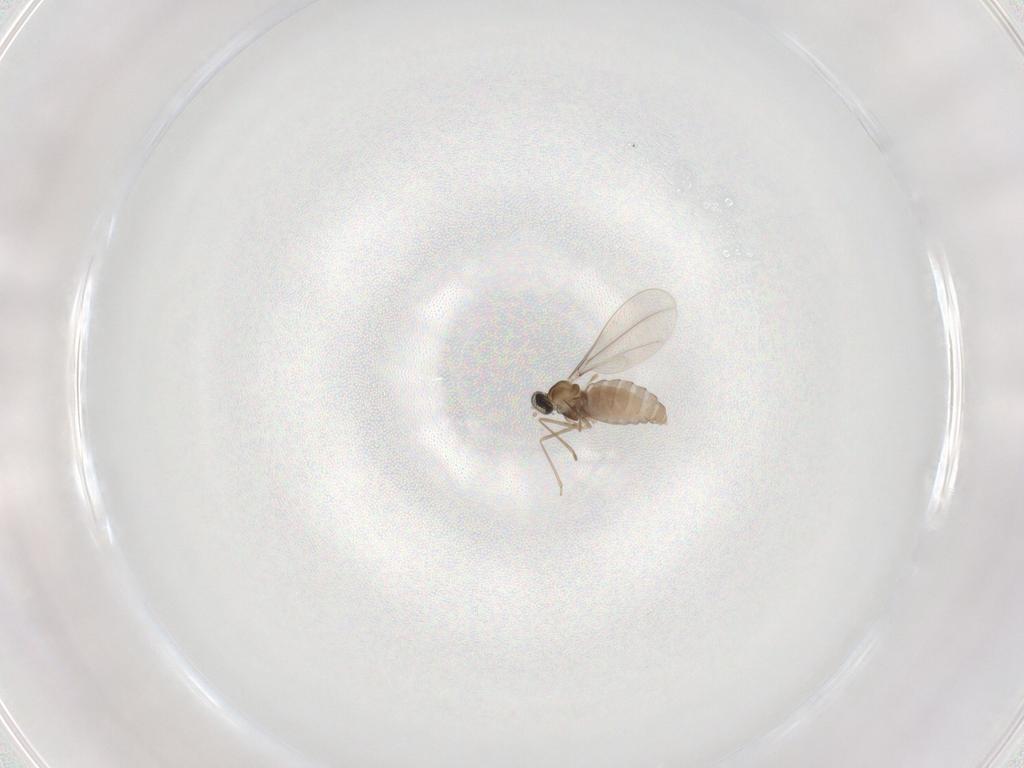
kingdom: Animalia
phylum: Arthropoda
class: Insecta
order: Diptera
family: Cecidomyiidae
